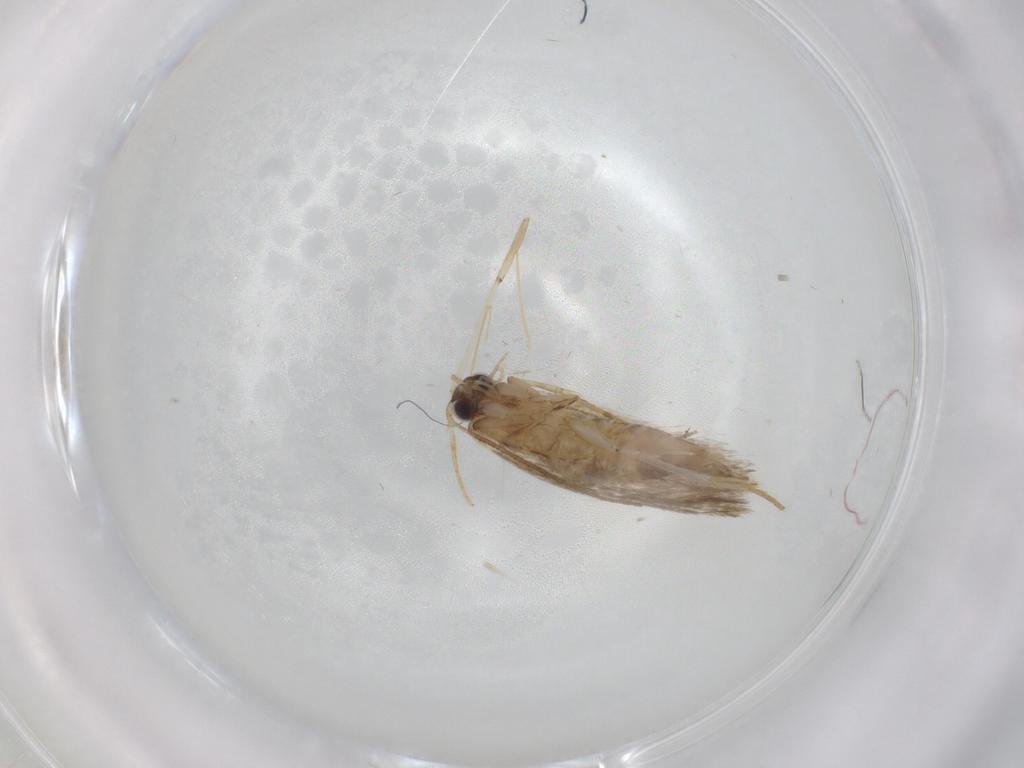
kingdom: Animalia
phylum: Arthropoda
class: Insecta
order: Lepidoptera
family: Tineidae
